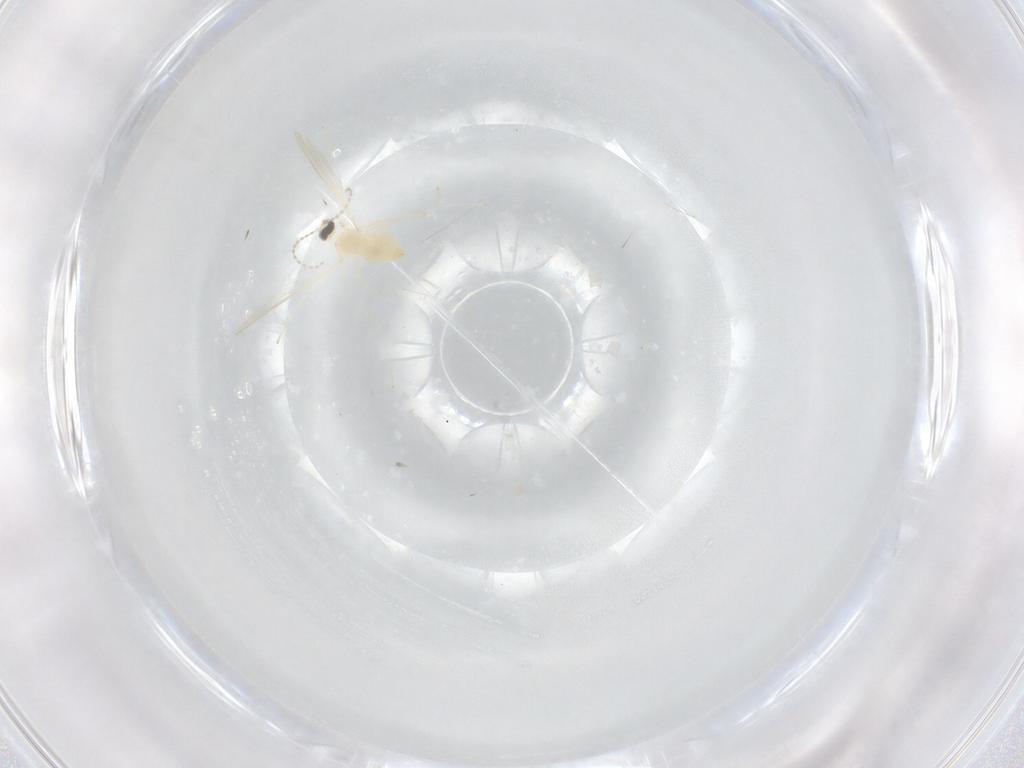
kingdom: Animalia
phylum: Arthropoda
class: Insecta
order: Diptera
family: Cecidomyiidae
